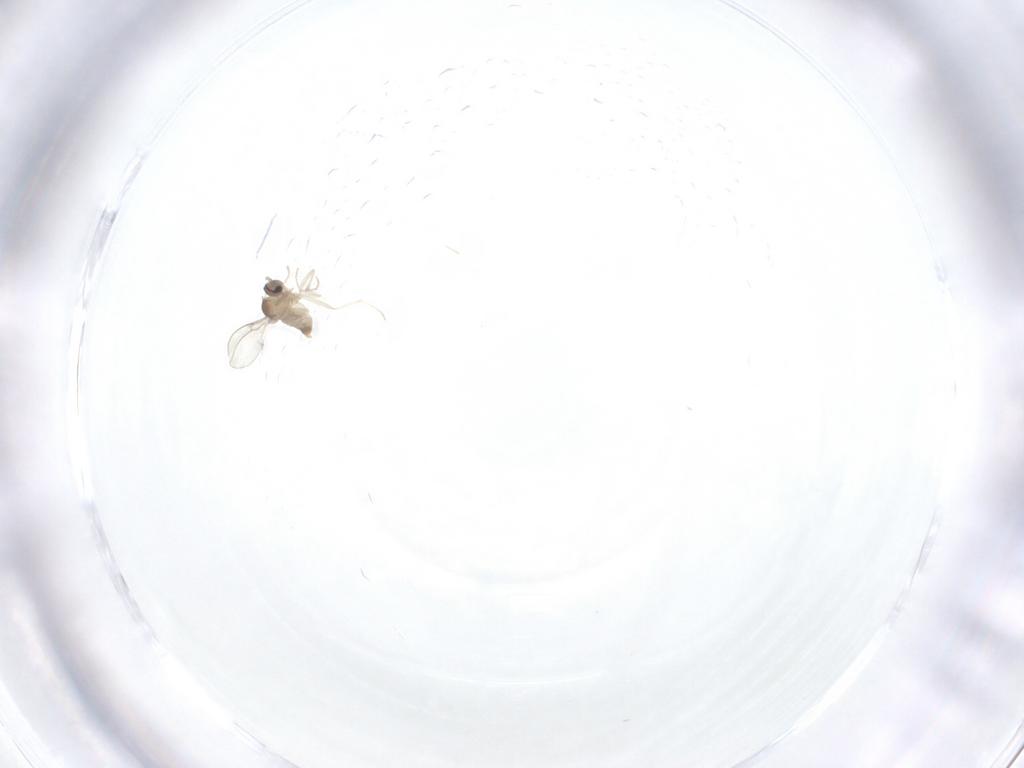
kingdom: Animalia
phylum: Arthropoda
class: Insecta
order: Diptera
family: Cecidomyiidae
